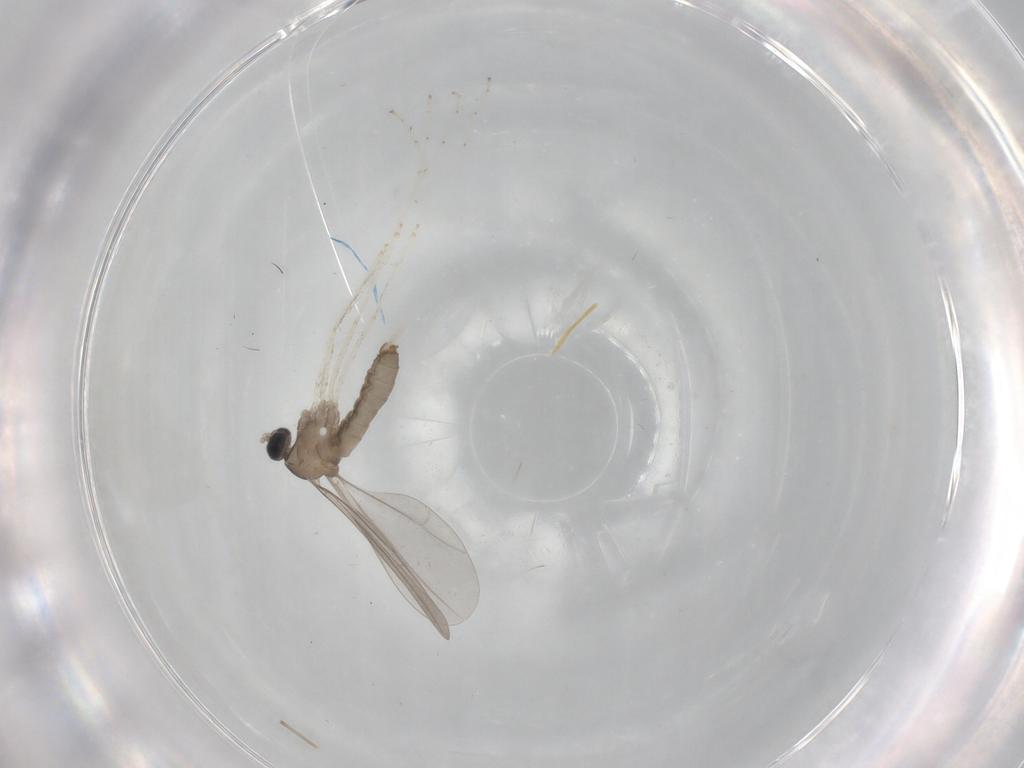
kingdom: Animalia
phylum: Arthropoda
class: Insecta
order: Diptera
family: Chironomidae
